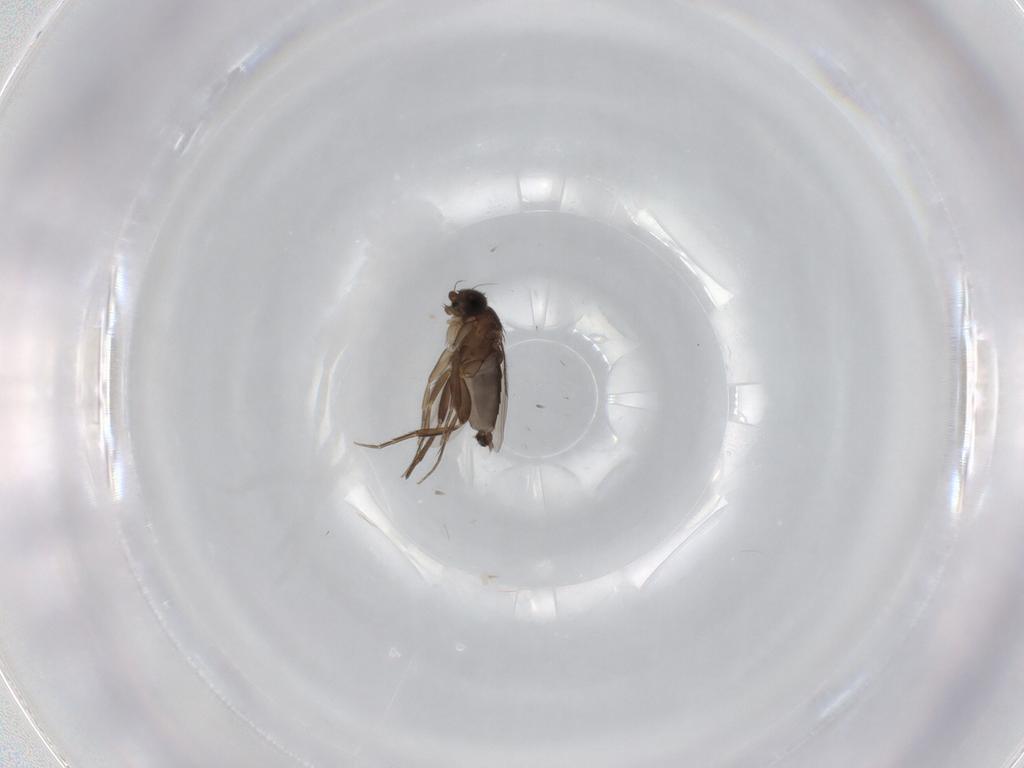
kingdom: Animalia
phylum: Arthropoda
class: Insecta
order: Diptera
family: Phoridae
